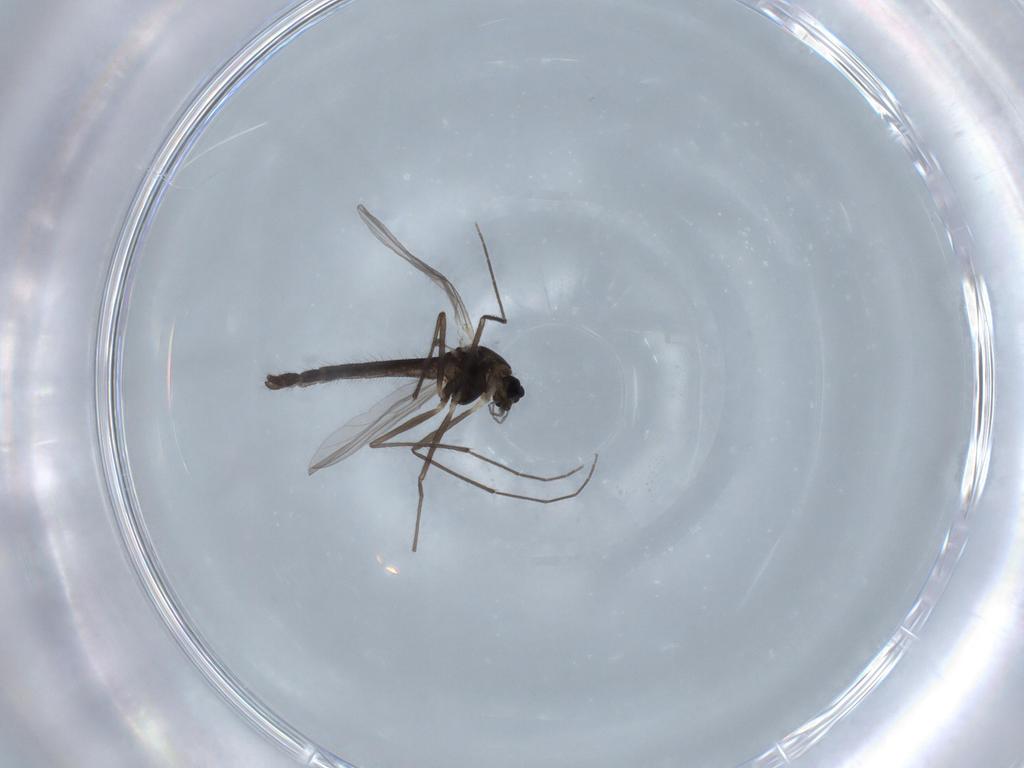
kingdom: Animalia
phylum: Arthropoda
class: Insecta
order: Diptera
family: Chironomidae
